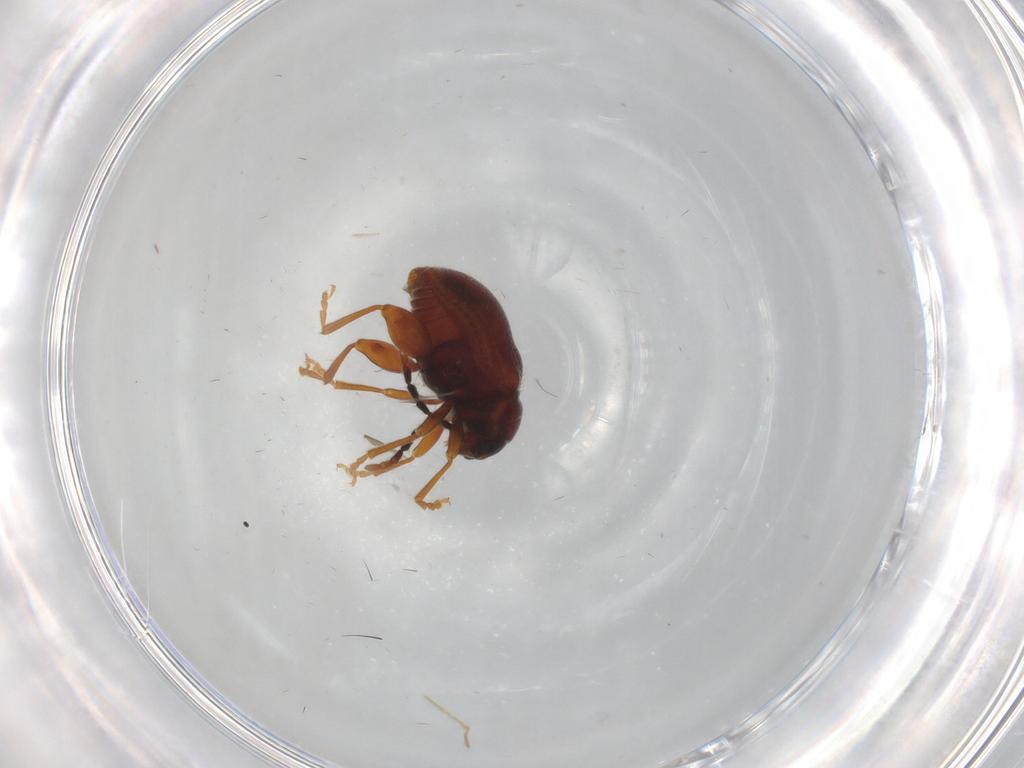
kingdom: Animalia
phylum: Arthropoda
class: Insecta
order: Coleoptera
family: Chrysomelidae
